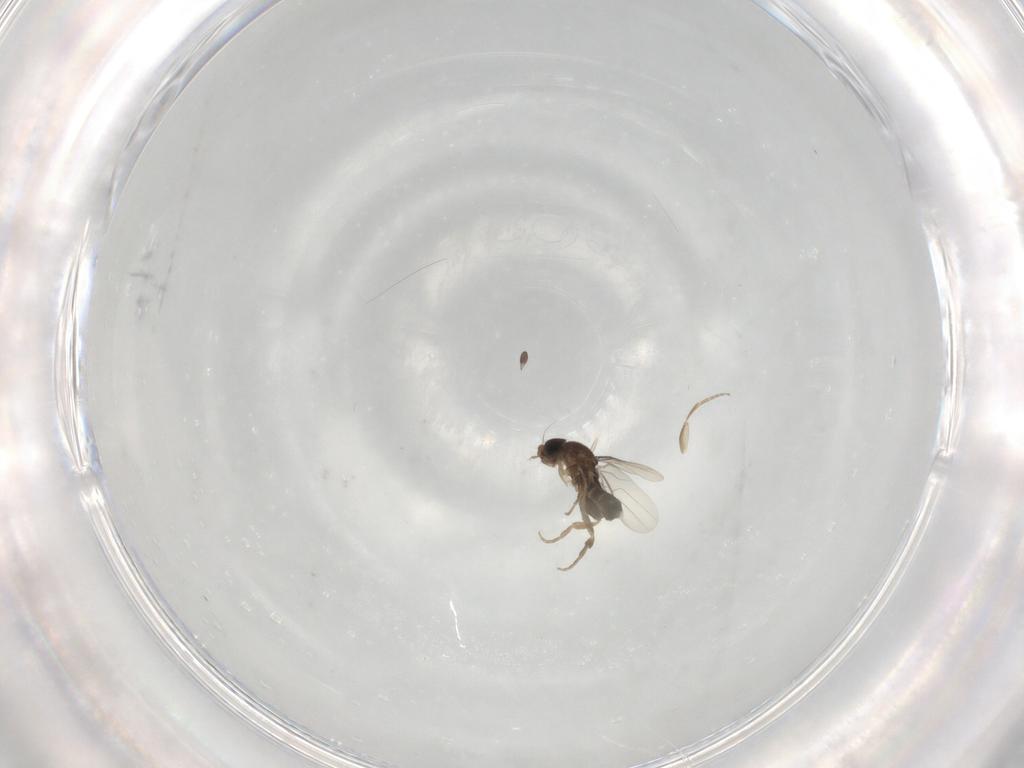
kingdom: Animalia
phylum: Arthropoda
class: Insecta
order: Diptera
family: Phoridae
